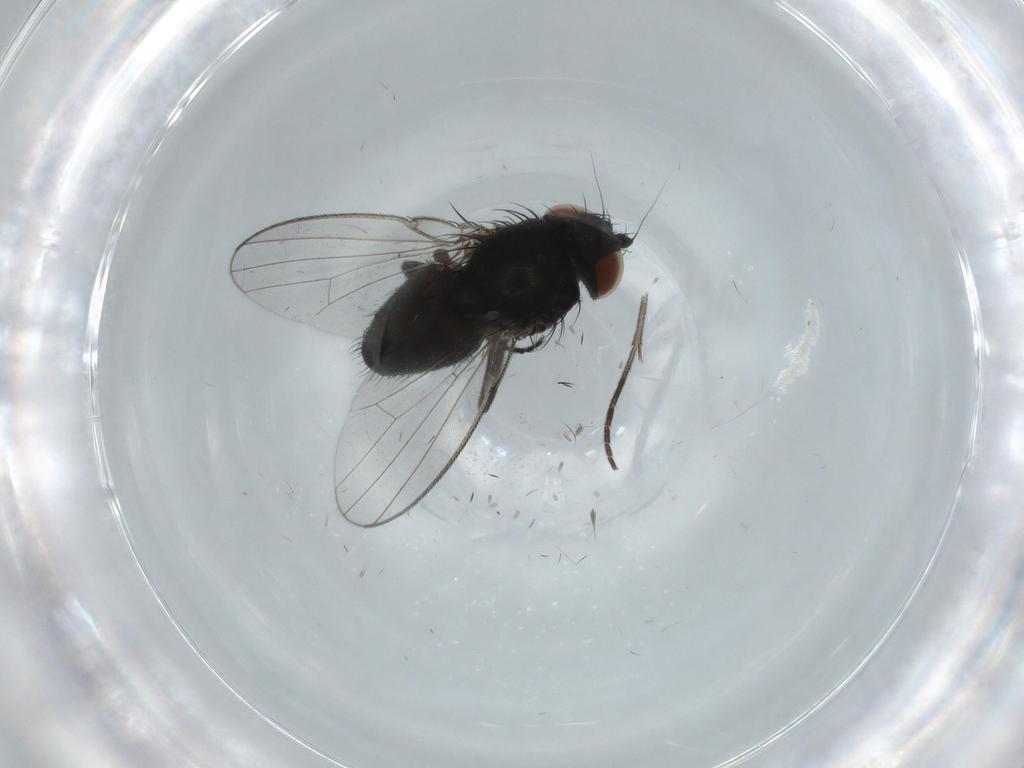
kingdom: Animalia
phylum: Arthropoda
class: Insecta
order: Diptera
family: Milichiidae
